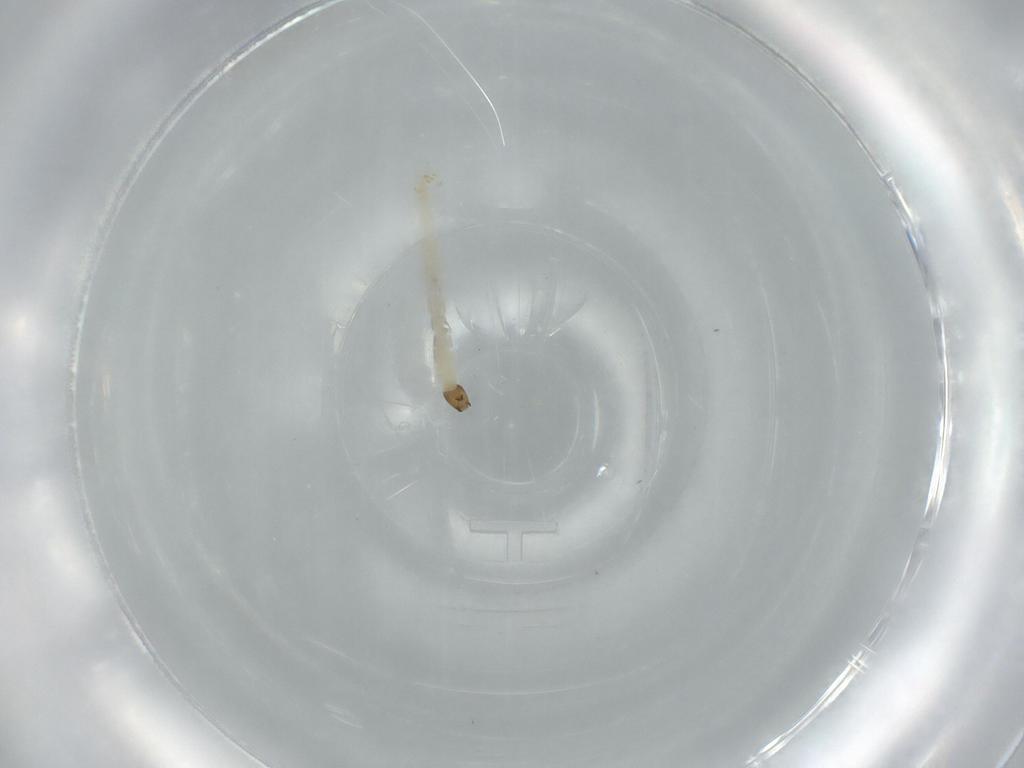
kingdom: Animalia
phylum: Arthropoda
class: Insecta
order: Diptera
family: Chironomidae
